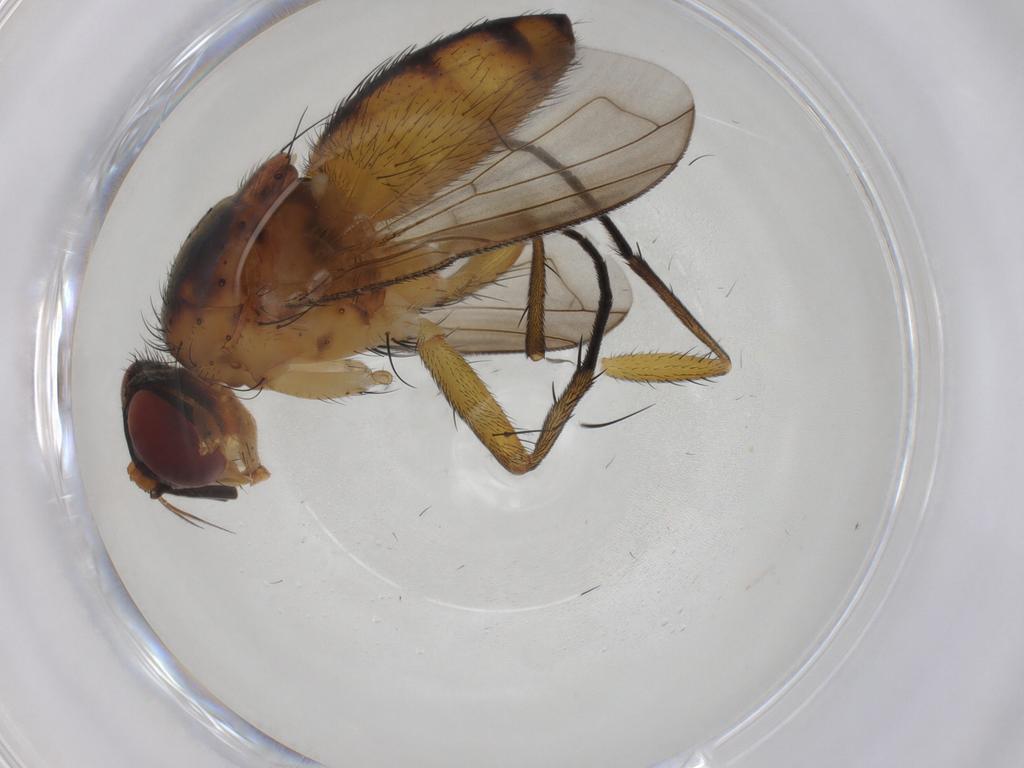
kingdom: Animalia
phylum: Arthropoda
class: Insecta
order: Diptera
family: Tachinidae
